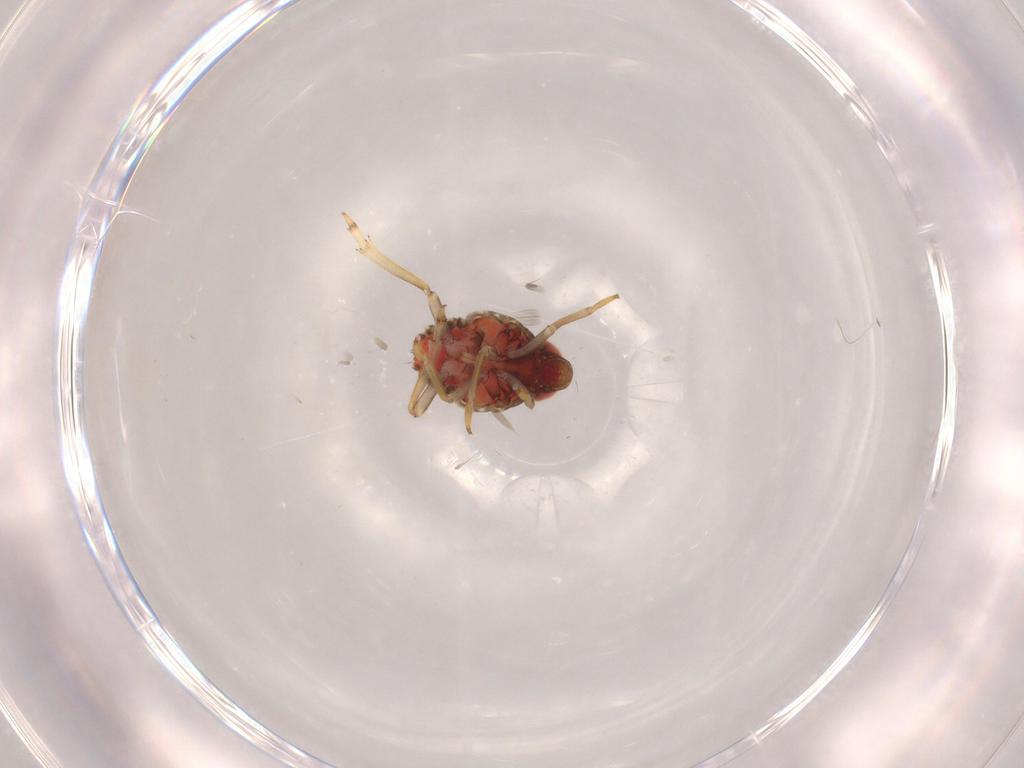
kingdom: Animalia
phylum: Arthropoda
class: Insecta
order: Hemiptera
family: Issidae
